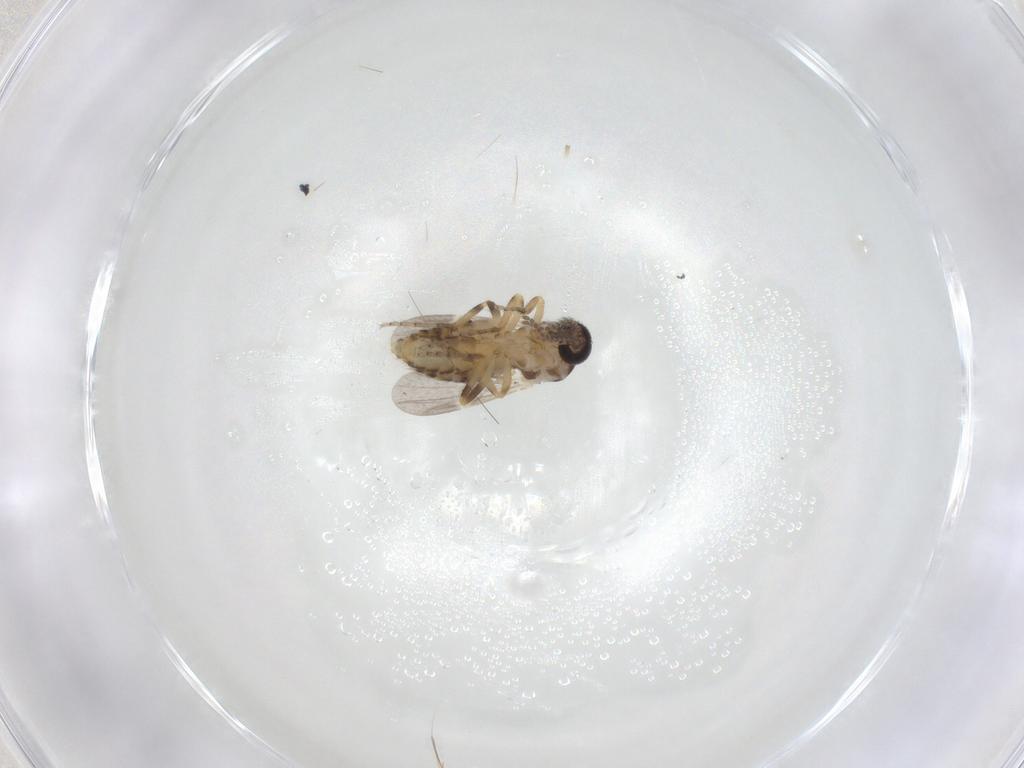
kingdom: Animalia
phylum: Arthropoda
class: Insecta
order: Diptera
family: Ceratopogonidae
